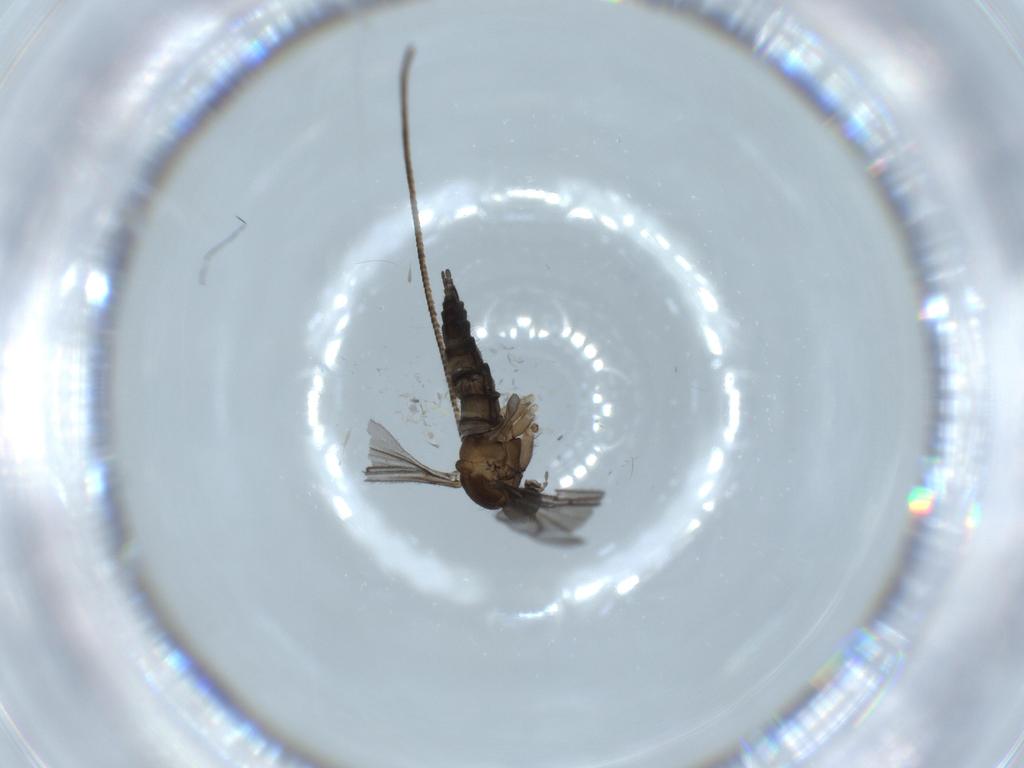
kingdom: Animalia
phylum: Arthropoda
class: Insecta
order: Diptera
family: Sciaridae
